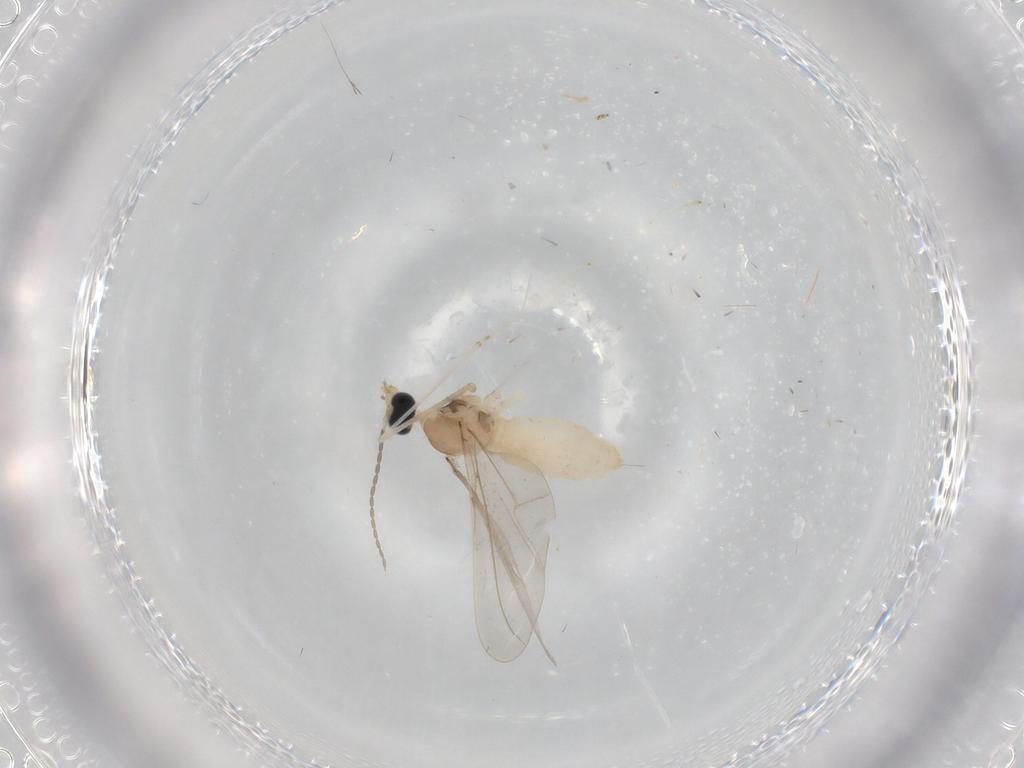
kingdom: Animalia
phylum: Arthropoda
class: Insecta
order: Diptera
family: Cecidomyiidae
